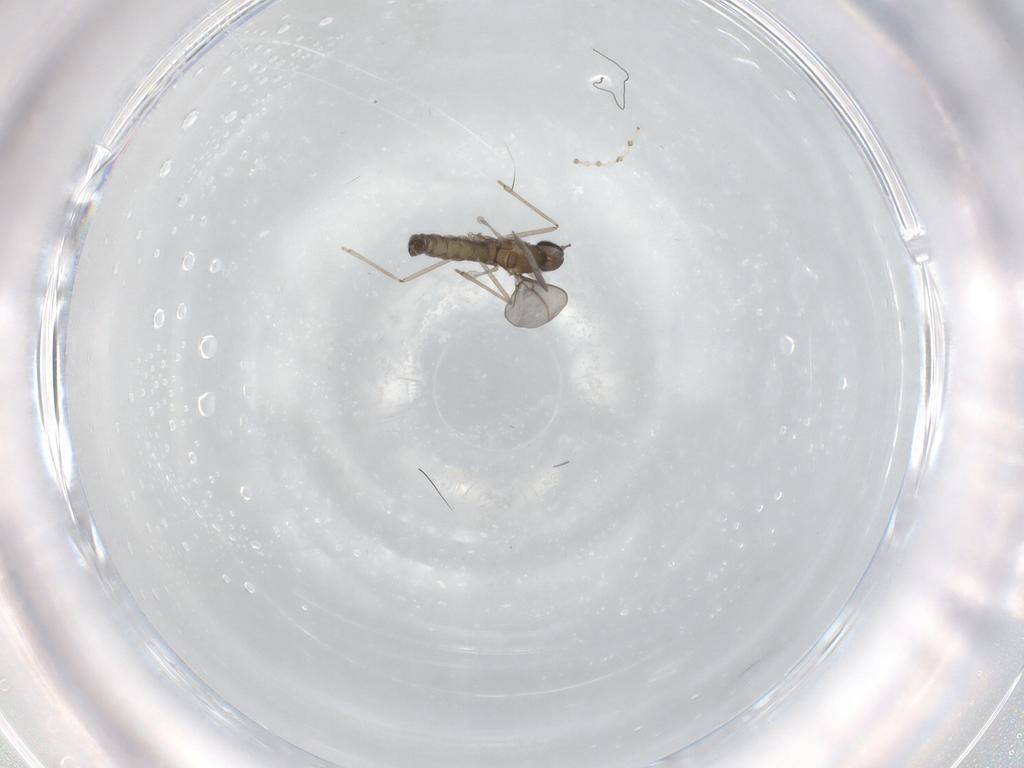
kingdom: Animalia
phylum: Arthropoda
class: Insecta
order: Diptera
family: Cecidomyiidae
